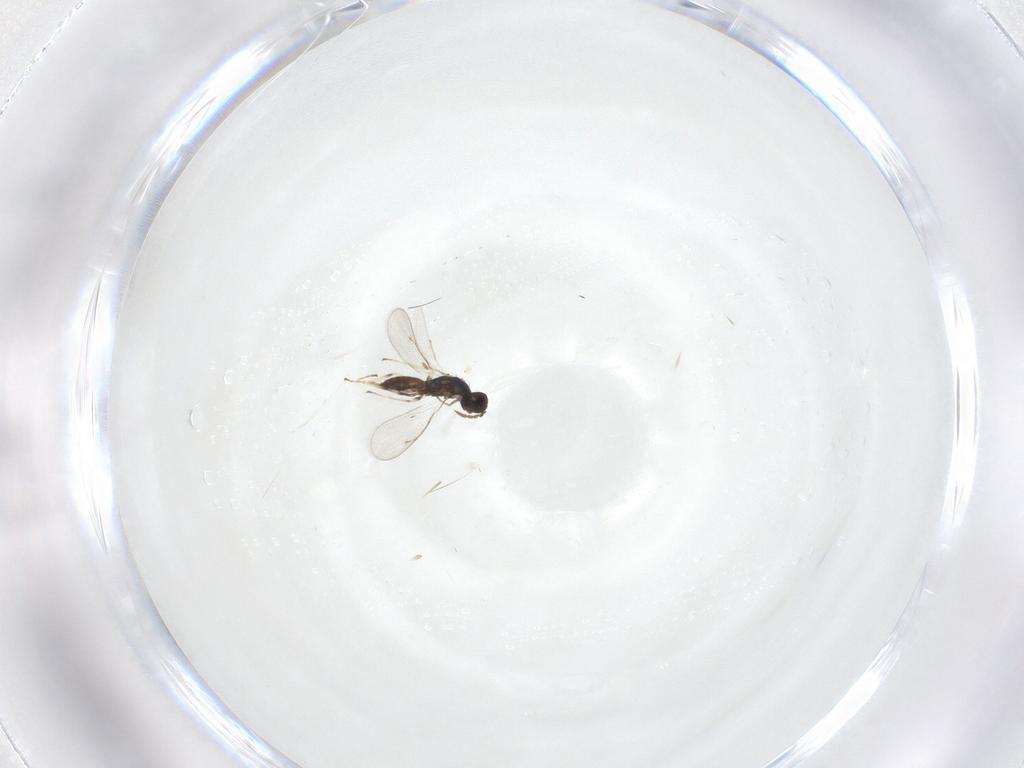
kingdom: Animalia
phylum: Arthropoda
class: Insecta
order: Hymenoptera
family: Eulophidae
